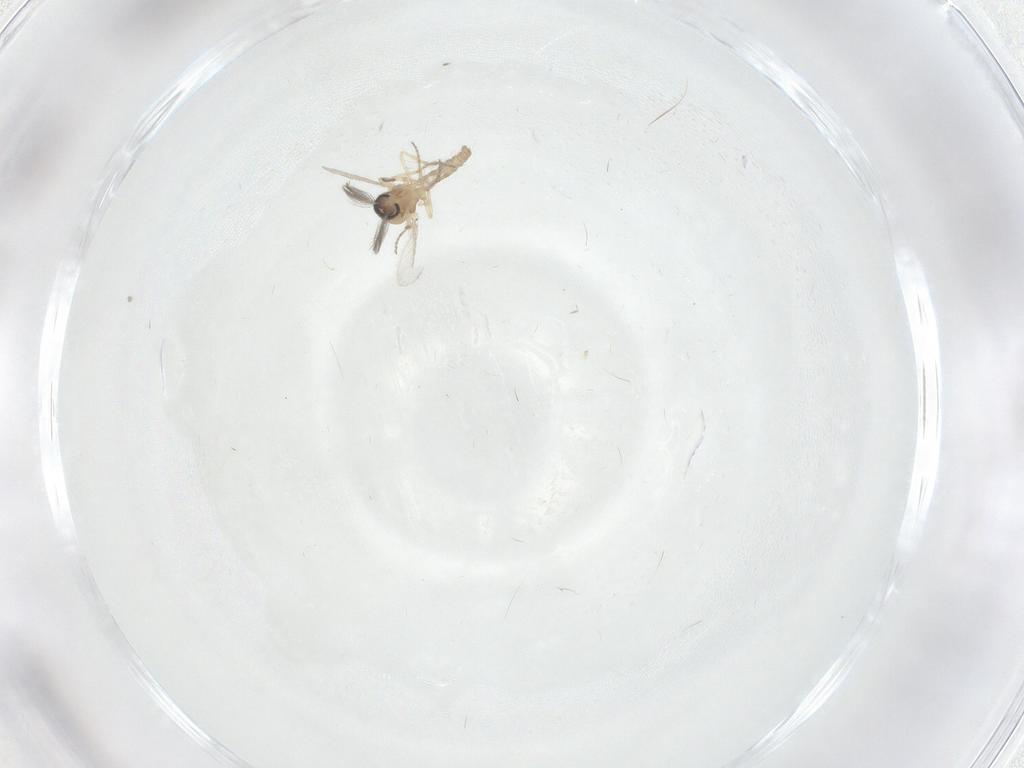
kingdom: Animalia
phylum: Arthropoda
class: Insecta
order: Diptera
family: Ceratopogonidae
